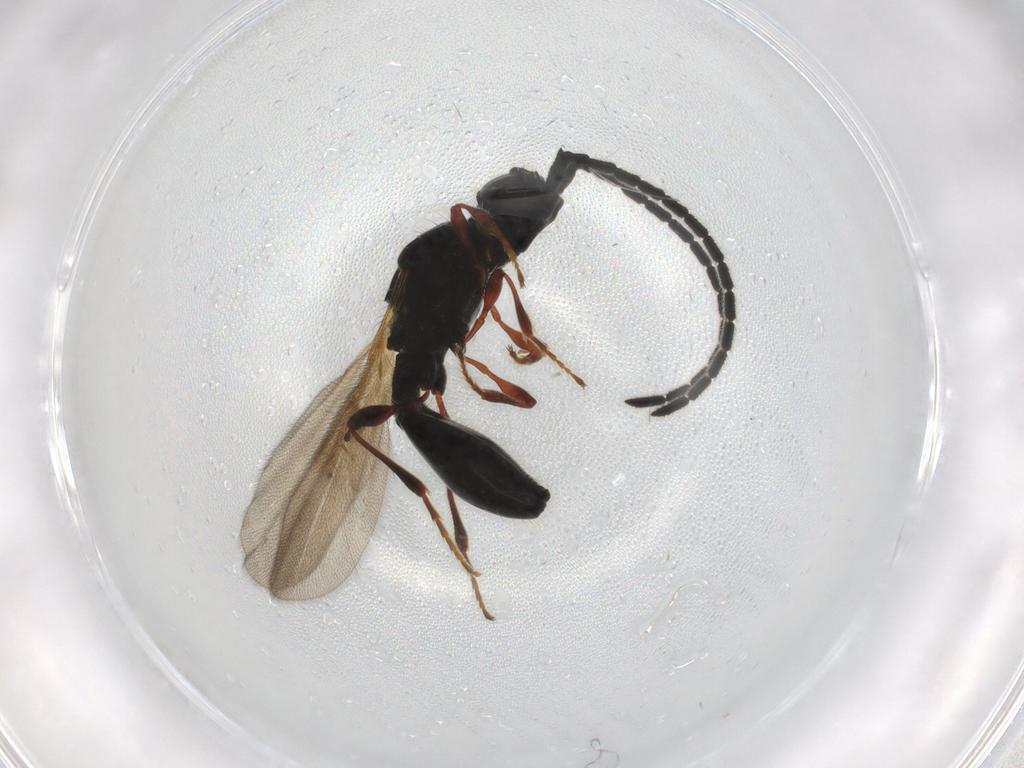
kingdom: Animalia
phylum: Arthropoda
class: Insecta
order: Hymenoptera
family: Diapriidae
